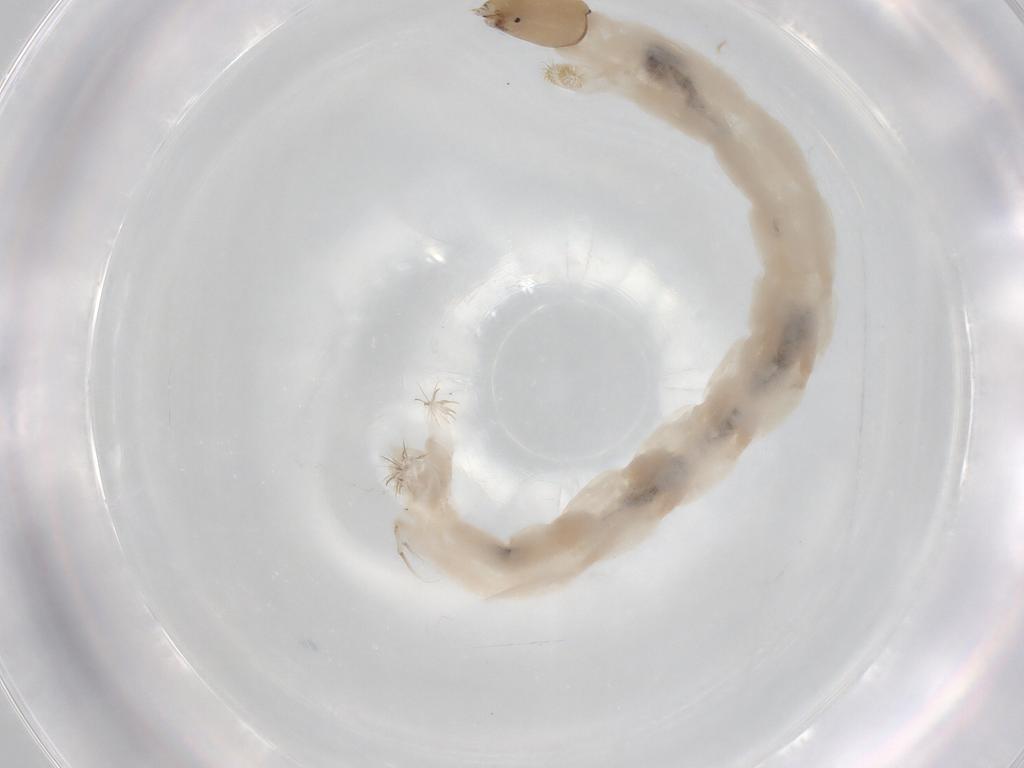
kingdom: Animalia
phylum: Arthropoda
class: Insecta
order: Diptera
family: Chironomidae
